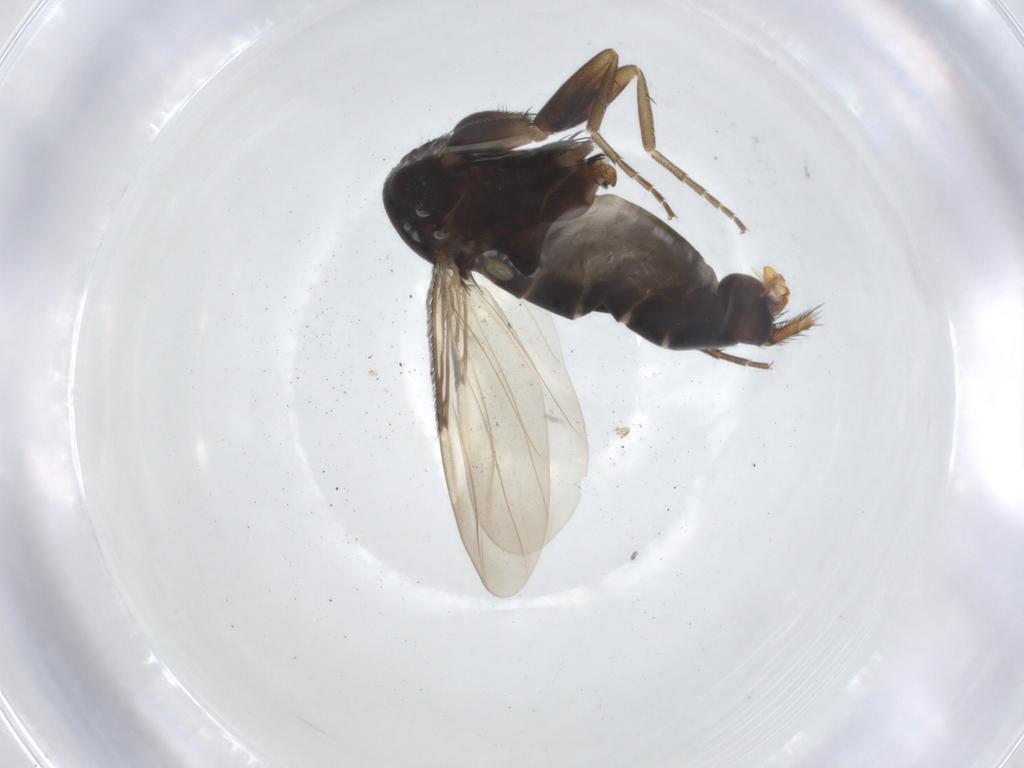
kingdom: Animalia
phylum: Arthropoda
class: Insecta
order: Diptera
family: Phoridae
